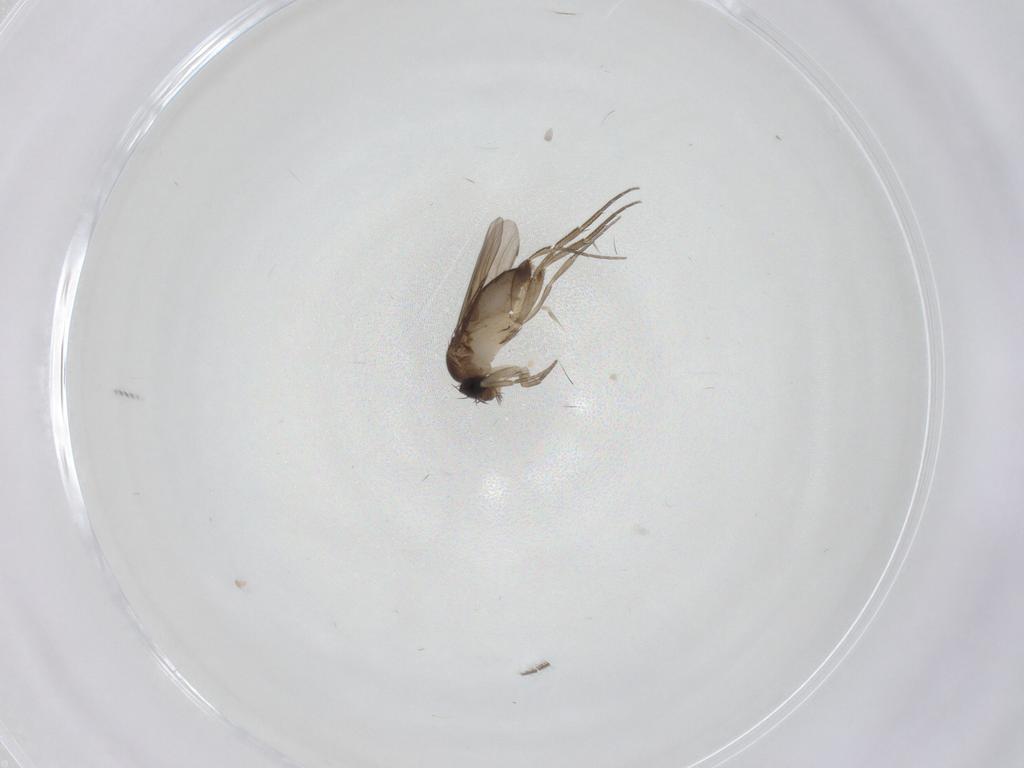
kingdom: Animalia
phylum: Arthropoda
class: Insecta
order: Diptera
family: Phoridae
